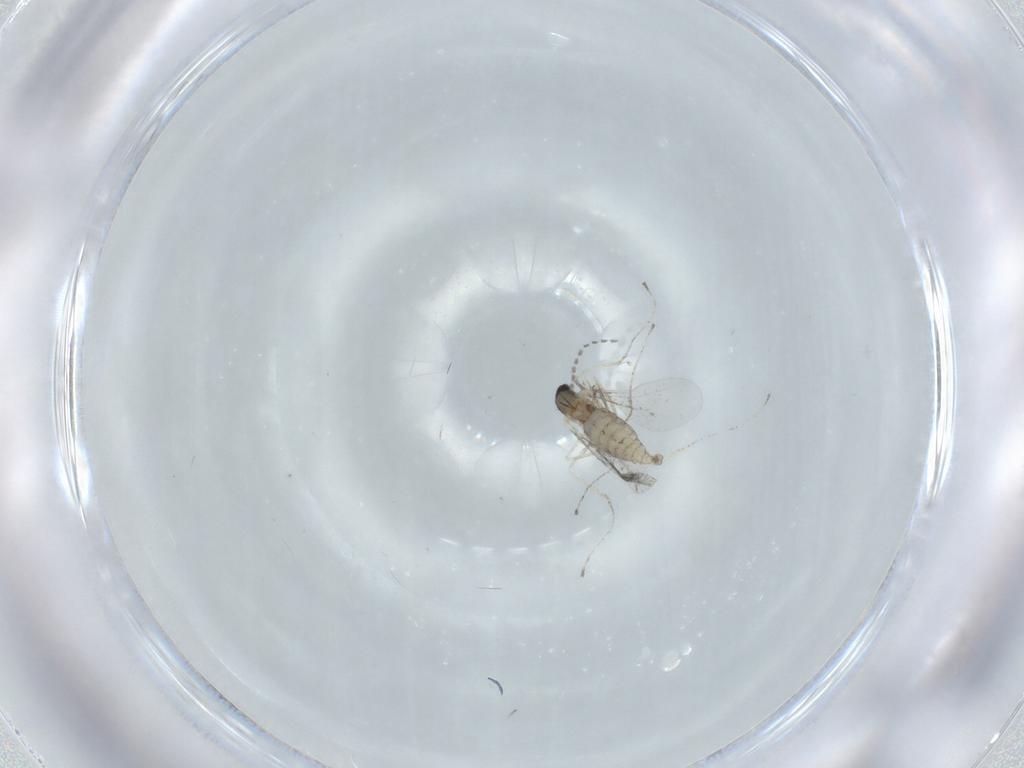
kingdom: Animalia
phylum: Arthropoda
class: Insecta
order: Diptera
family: Cecidomyiidae
